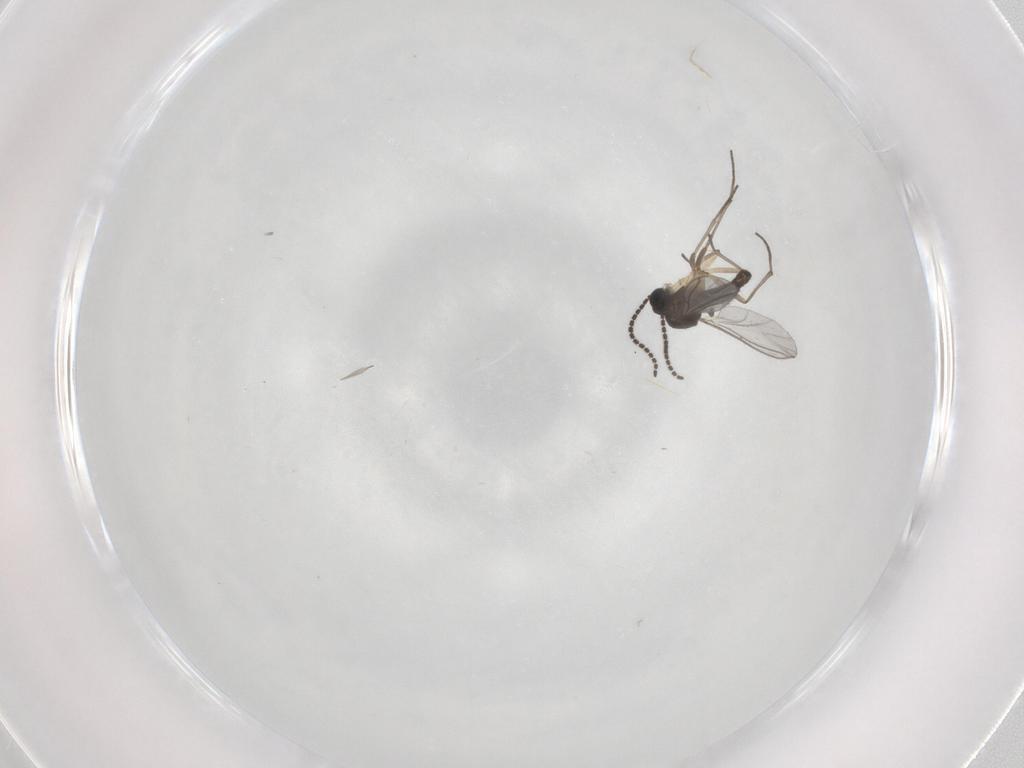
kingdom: Animalia
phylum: Arthropoda
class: Insecta
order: Diptera
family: Sciaridae
